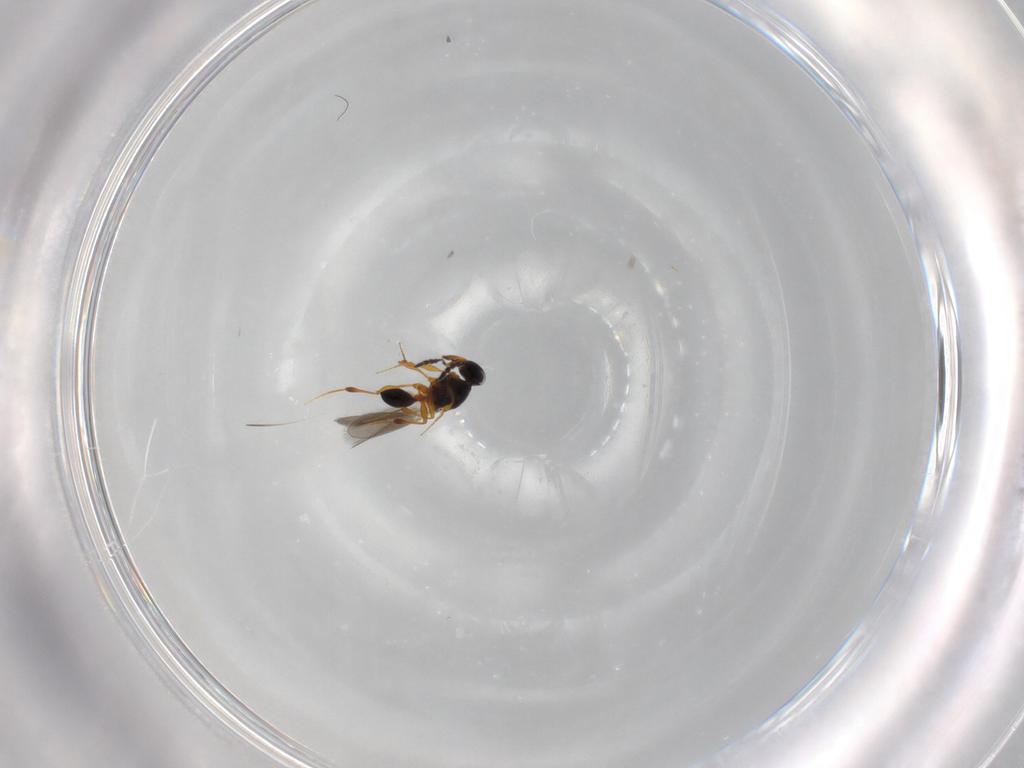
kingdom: Animalia
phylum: Arthropoda
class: Insecta
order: Hymenoptera
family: Platygastridae
